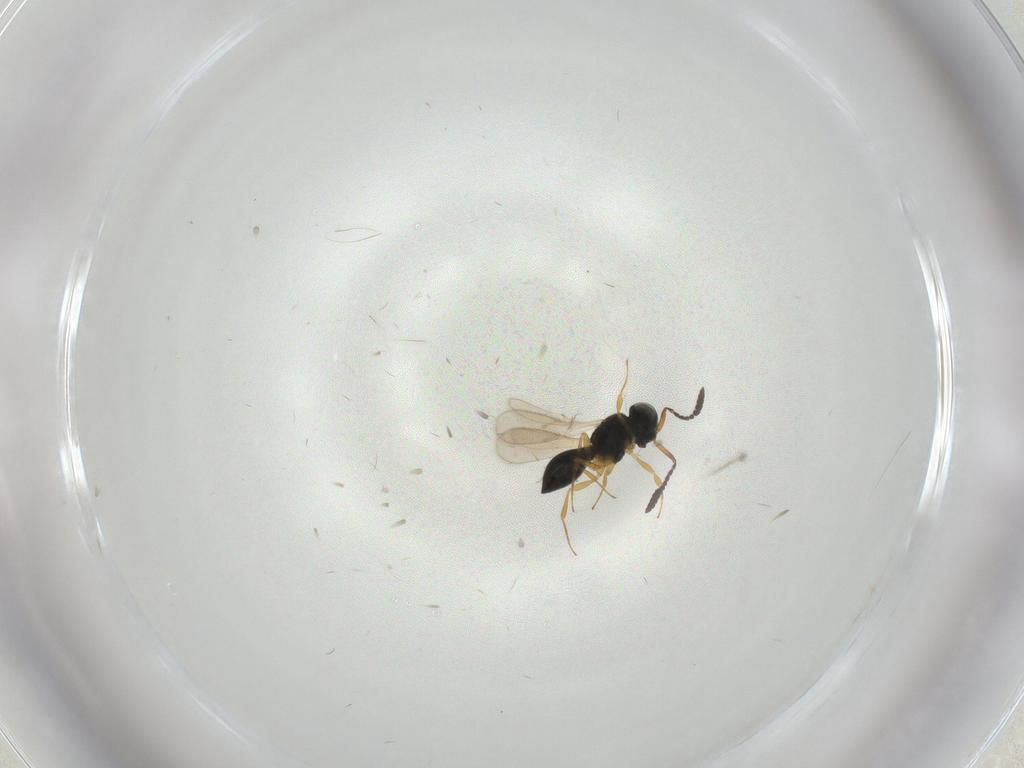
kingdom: Animalia
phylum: Arthropoda
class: Insecta
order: Hymenoptera
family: Scelionidae
